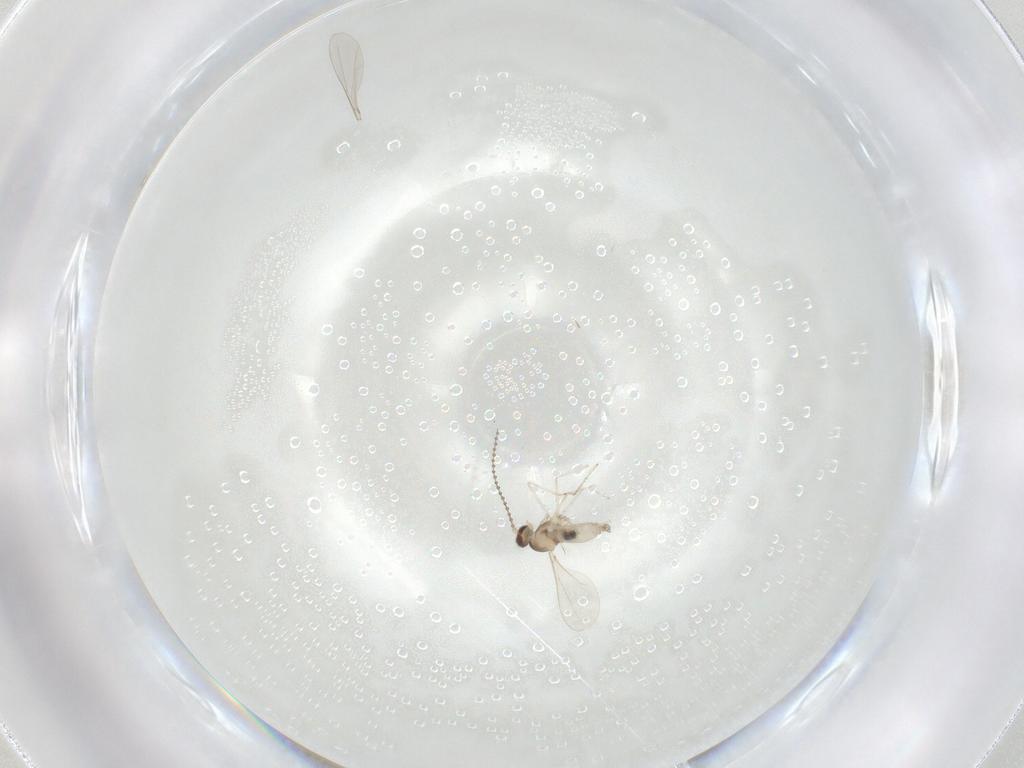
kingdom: Animalia
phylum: Arthropoda
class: Insecta
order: Diptera
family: Cecidomyiidae
